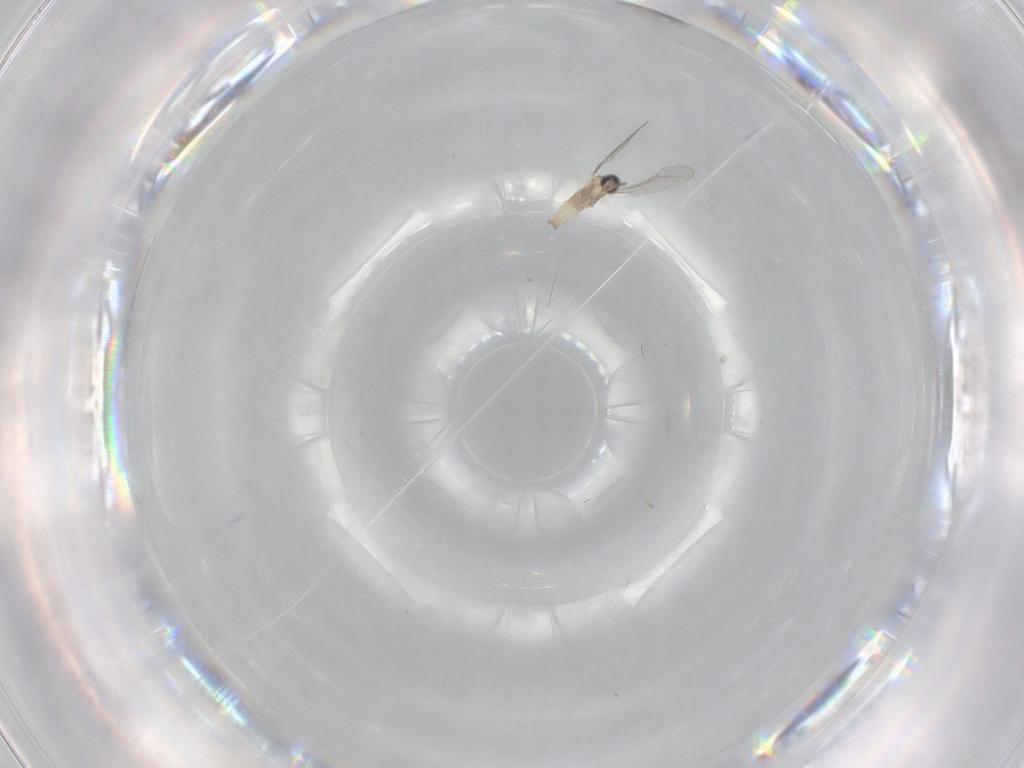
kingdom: Animalia
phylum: Arthropoda
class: Insecta
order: Diptera
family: Cecidomyiidae
